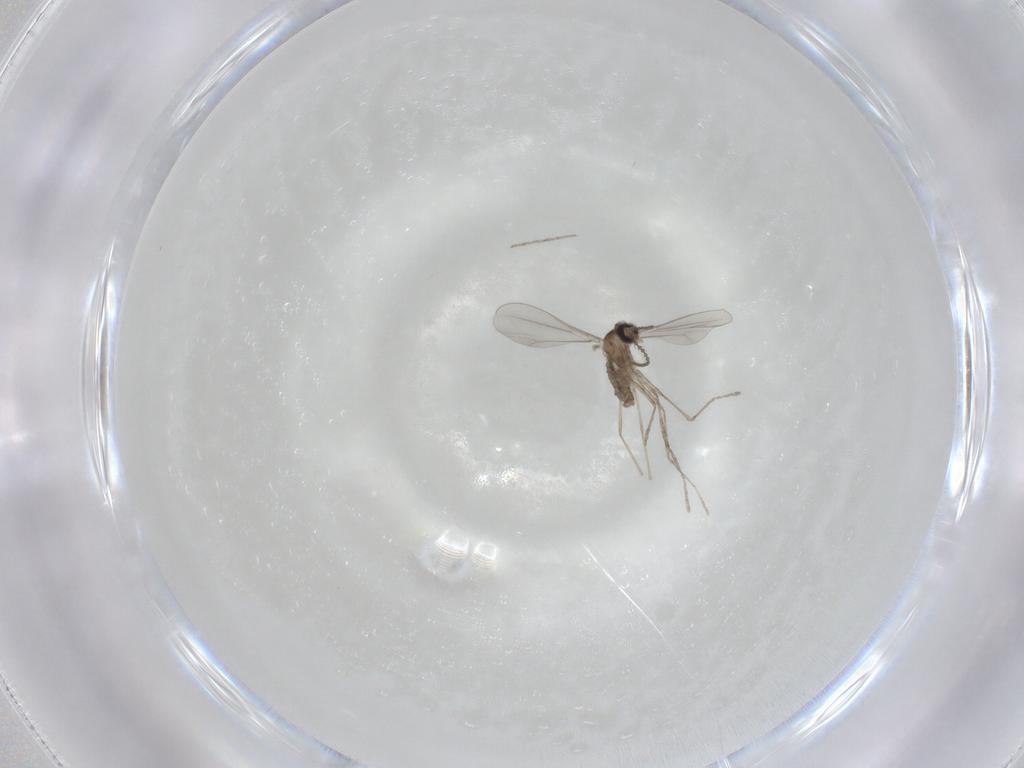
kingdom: Animalia
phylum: Arthropoda
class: Insecta
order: Diptera
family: Cecidomyiidae
